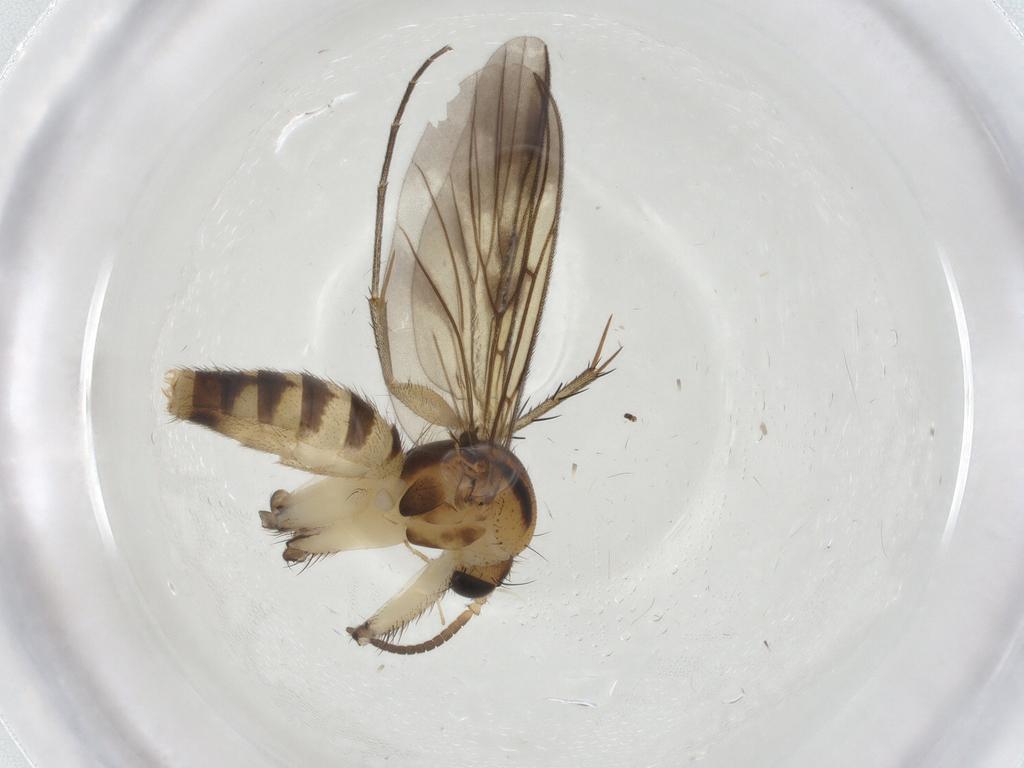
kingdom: Animalia
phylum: Arthropoda
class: Insecta
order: Diptera
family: Mycetophilidae
